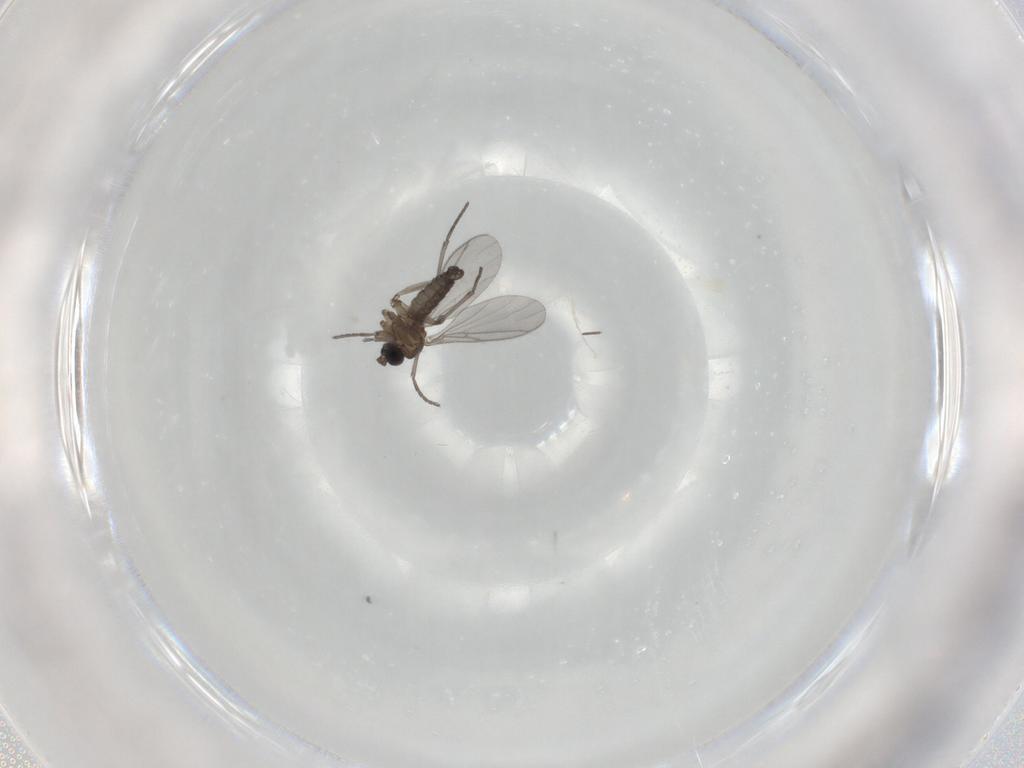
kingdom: Animalia
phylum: Arthropoda
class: Insecta
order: Diptera
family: Sciaridae
